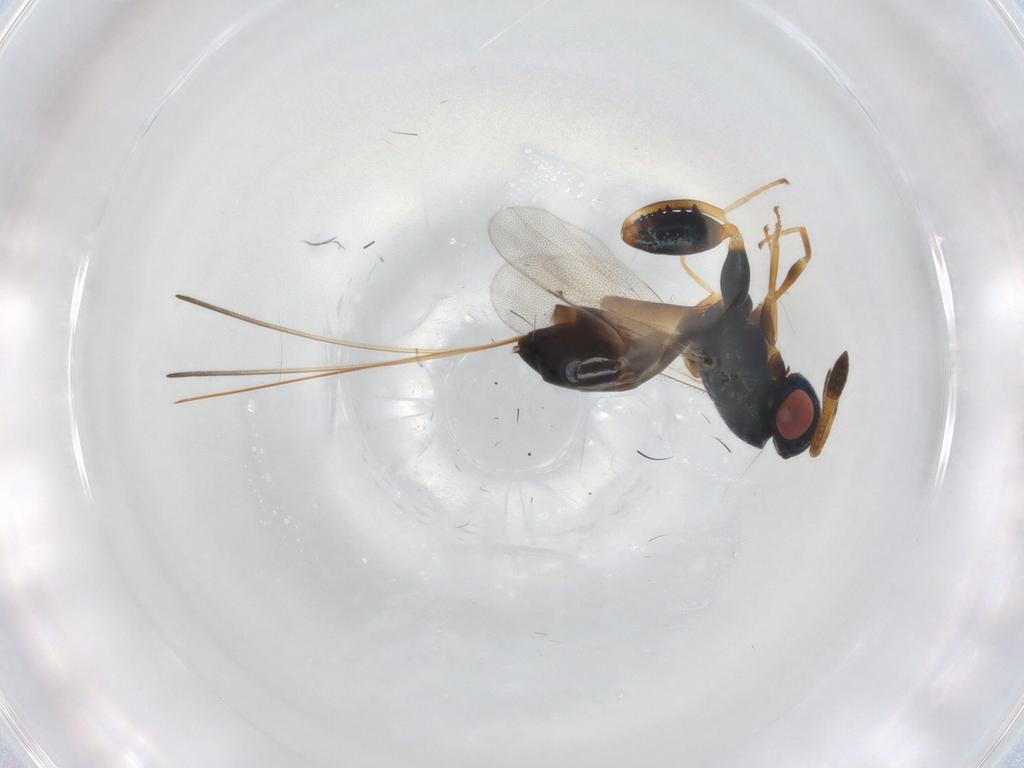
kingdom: Animalia
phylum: Arthropoda
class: Insecta
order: Hymenoptera
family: Torymidae
